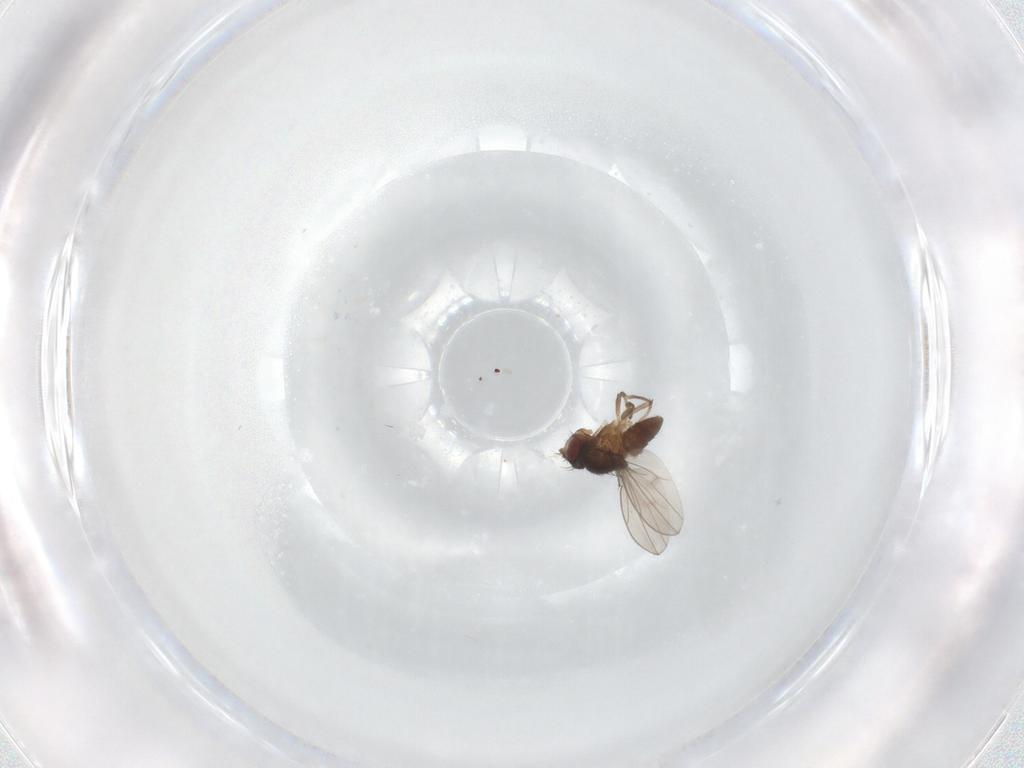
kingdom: Animalia
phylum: Arthropoda
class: Insecta
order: Diptera
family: Ephydridae
